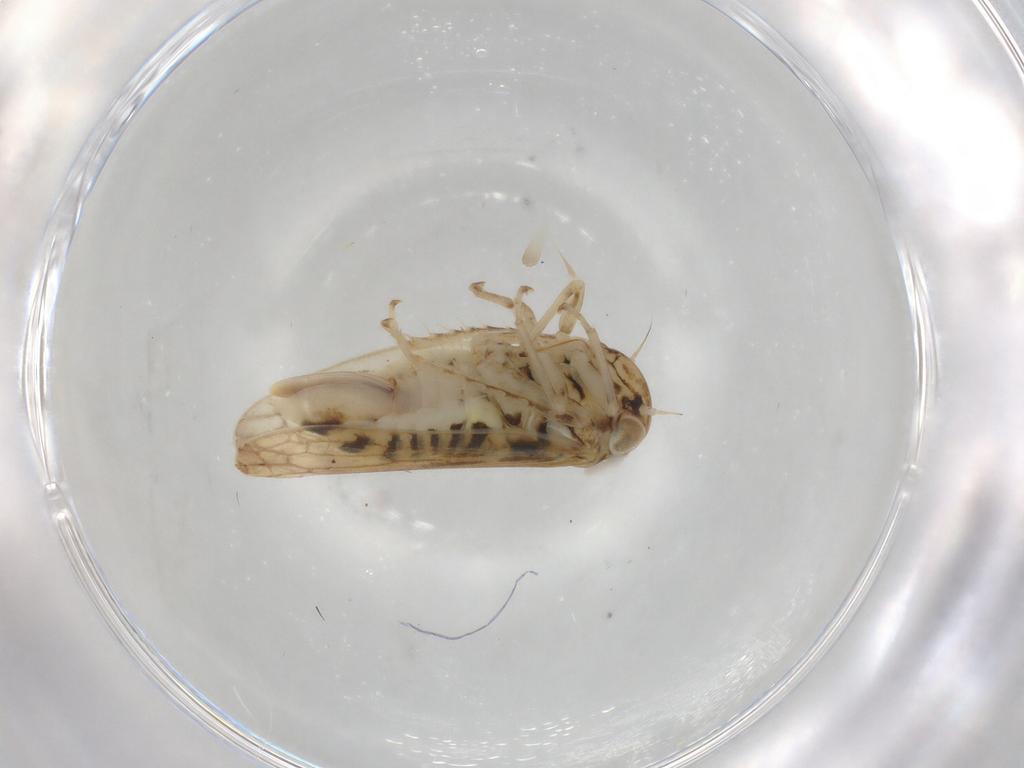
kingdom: Animalia
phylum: Arthropoda
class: Insecta
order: Hemiptera
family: Cicadellidae
